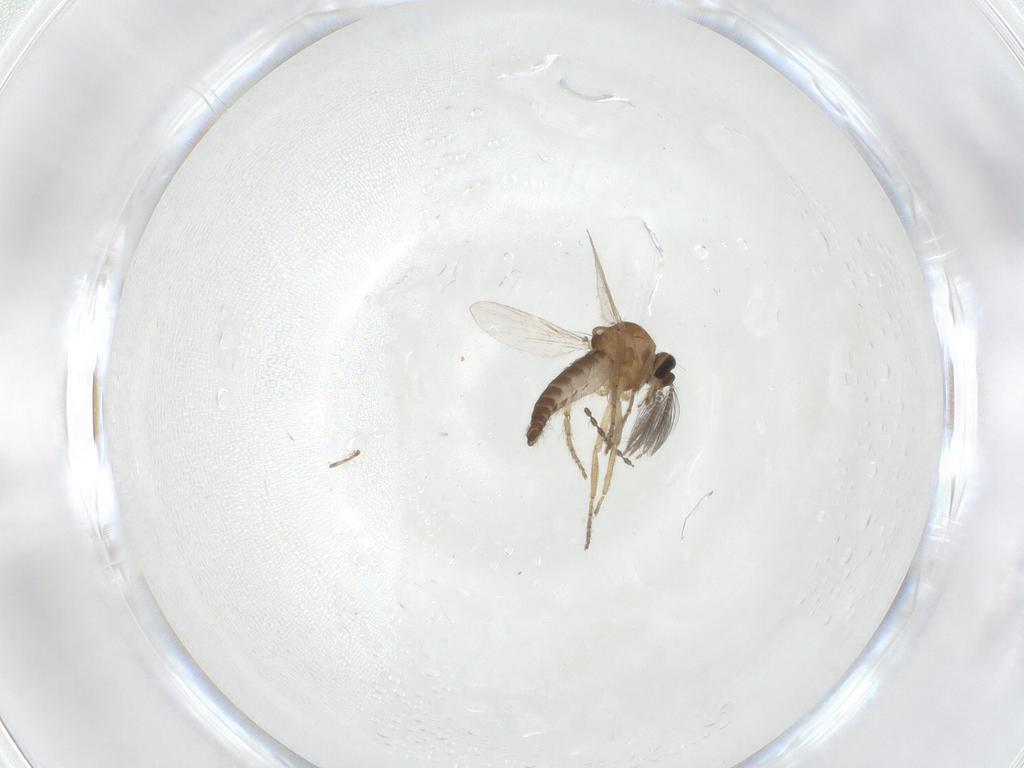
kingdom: Animalia
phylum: Arthropoda
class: Insecta
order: Diptera
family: Ceratopogonidae
